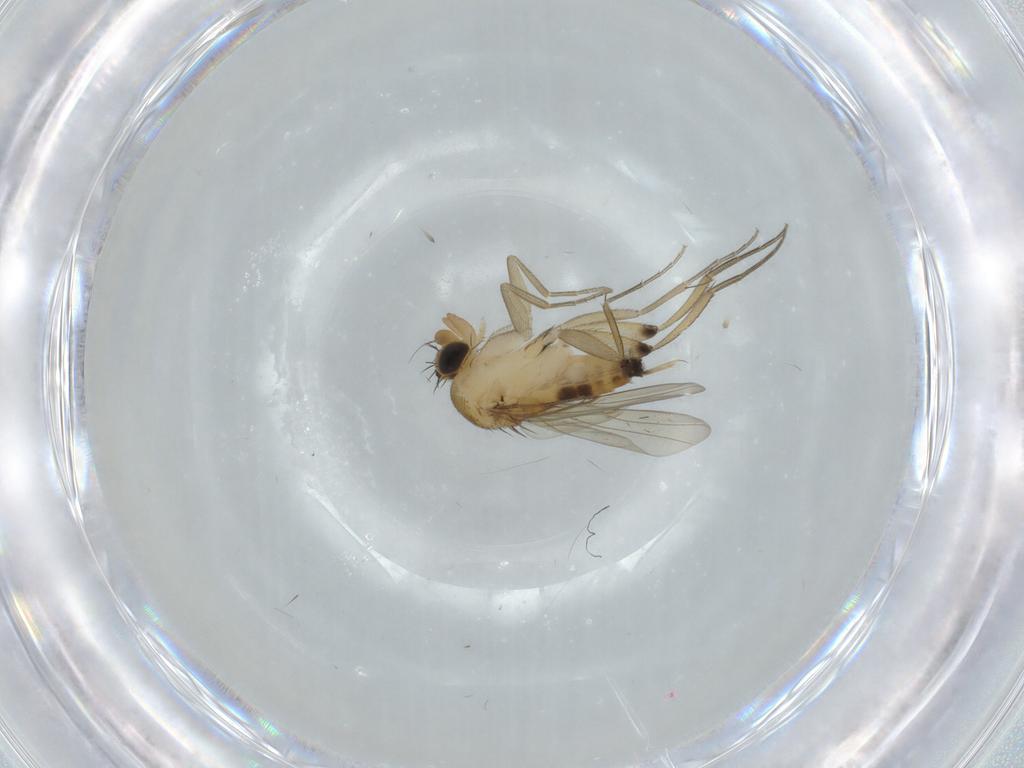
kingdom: Animalia
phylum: Arthropoda
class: Insecta
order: Diptera
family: Phoridae
